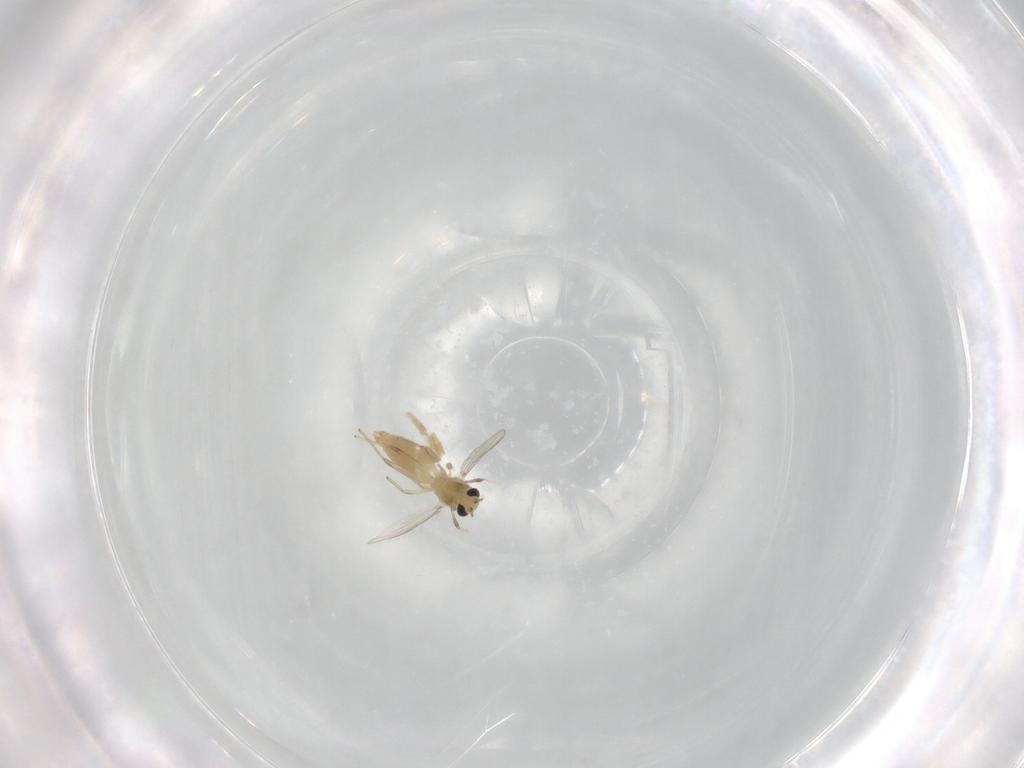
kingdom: Animalia
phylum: Arthropoda
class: Insecta
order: Diptera
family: Chironomidae
